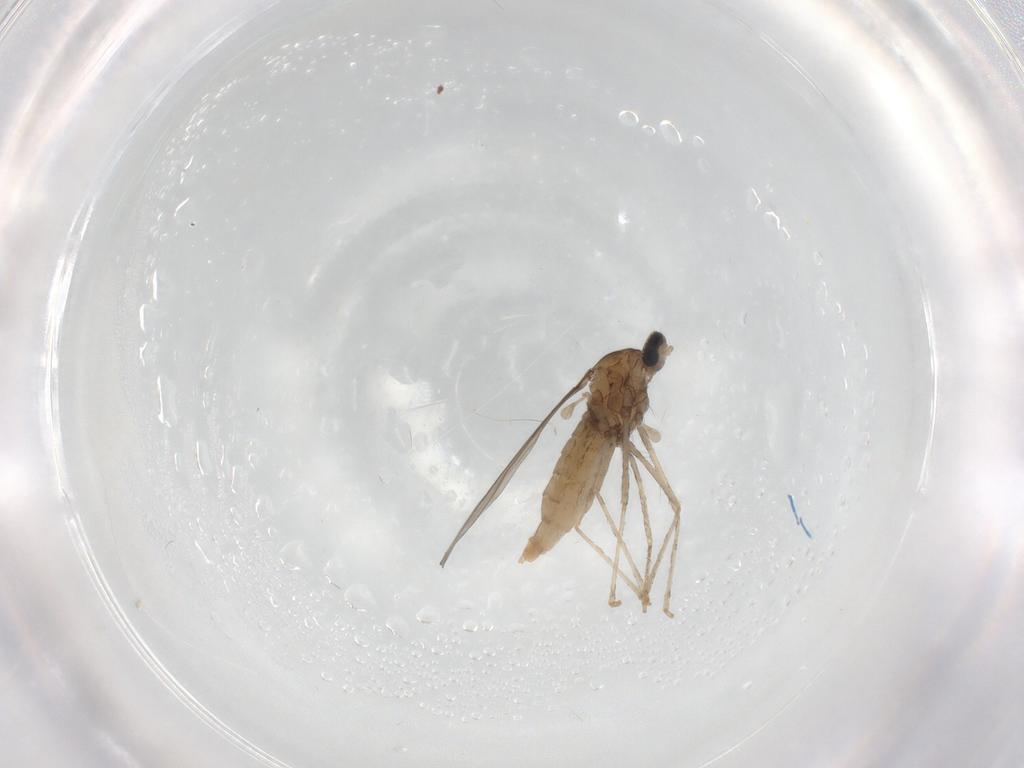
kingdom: Animalia
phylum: Arthropoda
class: Insecta
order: Diptera
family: Cecidomyiidae
